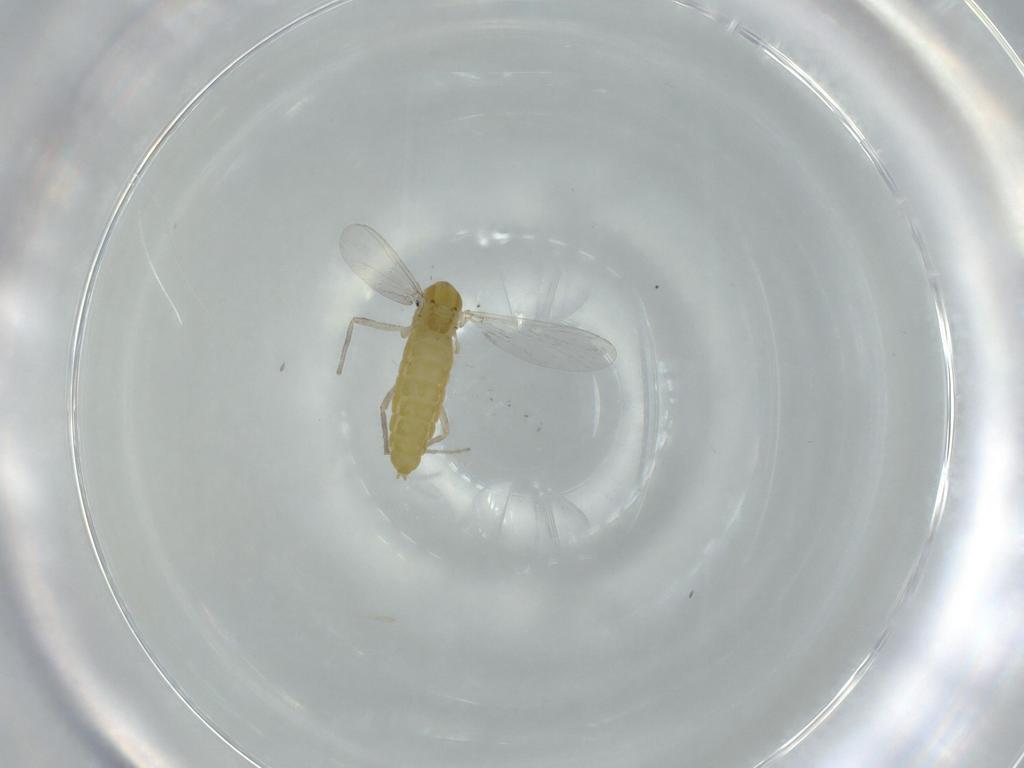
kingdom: Animalia
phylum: Arthropoda
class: Insecta
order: Diptera
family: Chironomidae
